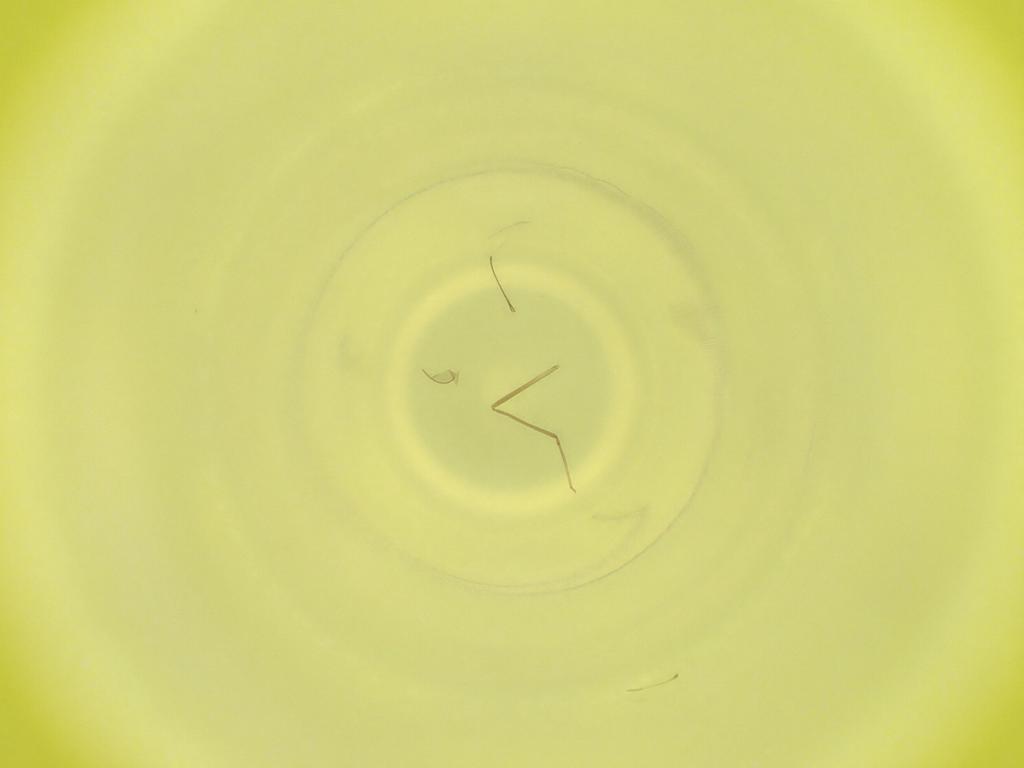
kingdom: Animalia
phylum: Arthropoda
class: Insecta
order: Diptera
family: Cecidomyiidae
